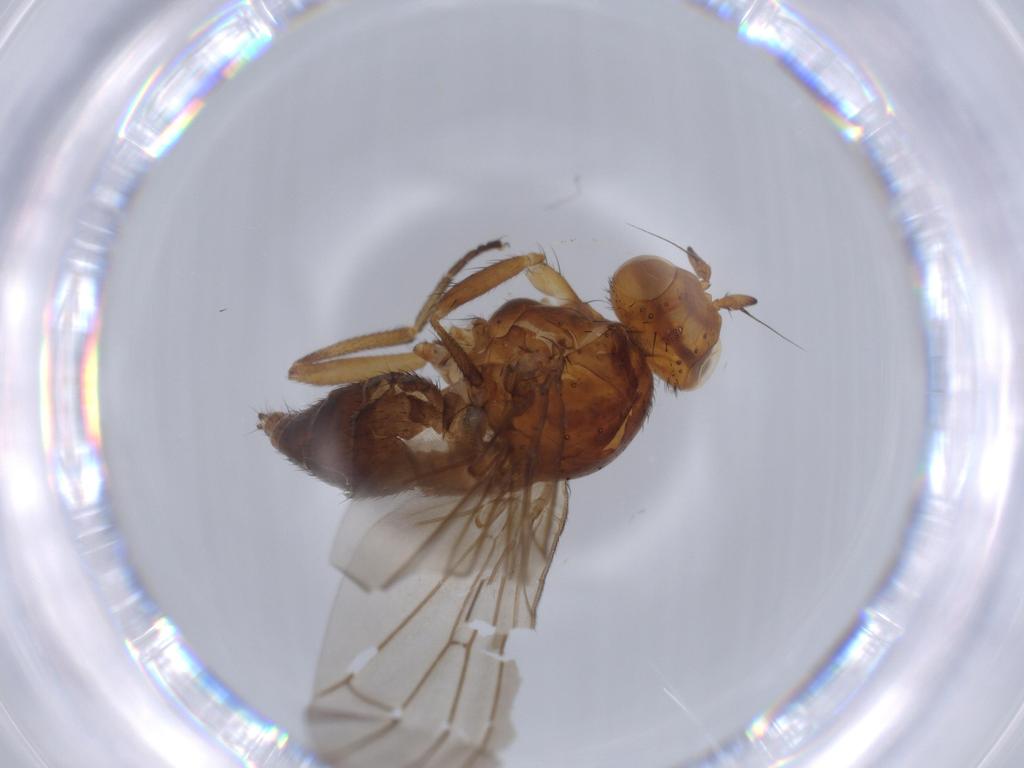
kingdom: Animalia
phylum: Arthropoda
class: Insecta
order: Diptera
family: Lauxaniidae
